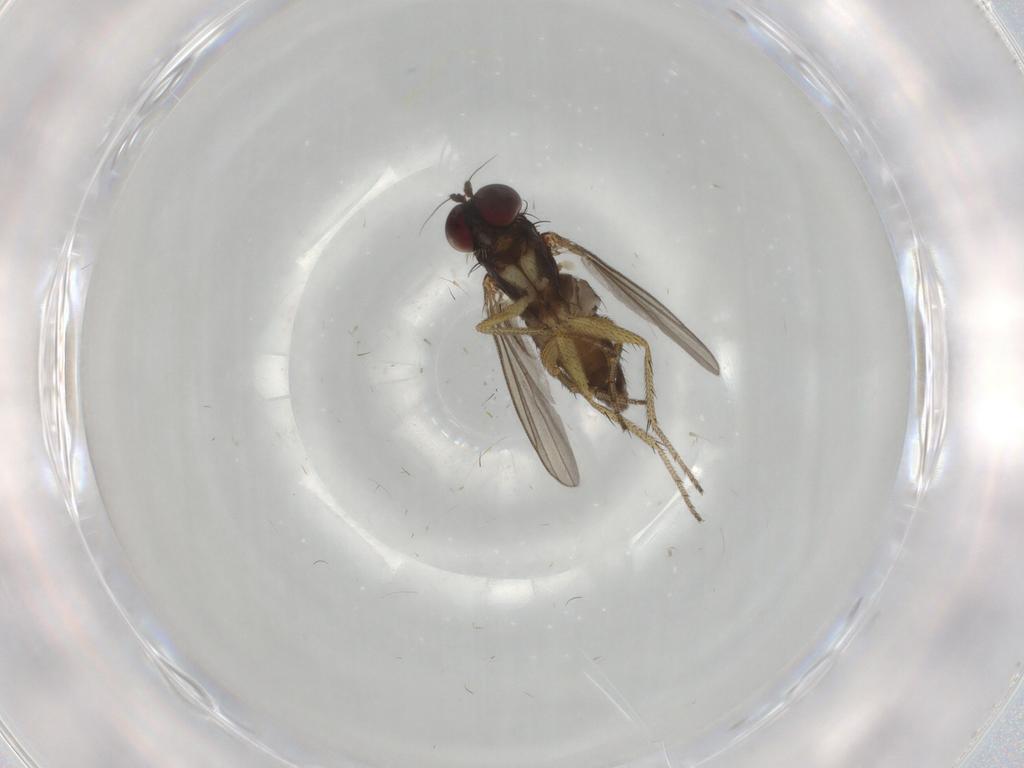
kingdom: Animalia
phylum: Arthropoda
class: Insecta
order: Diptera
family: Dolichopodidae
